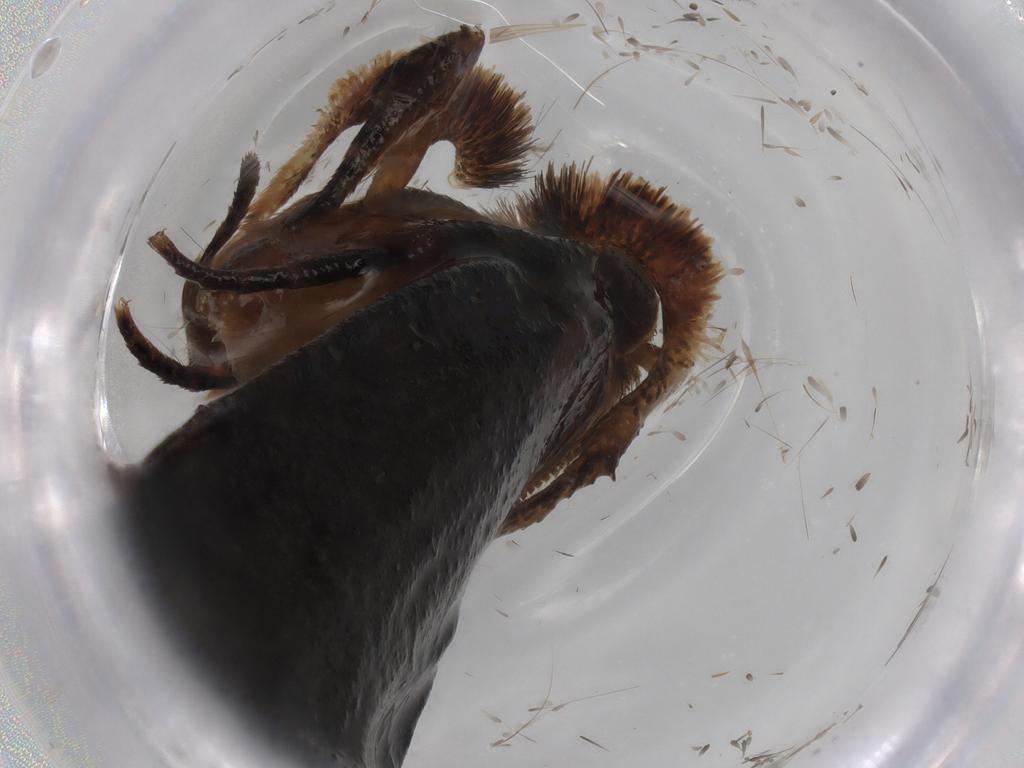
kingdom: Animalia
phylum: Arthropoda
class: Insecta
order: Lepidoptera
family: Tineidae
